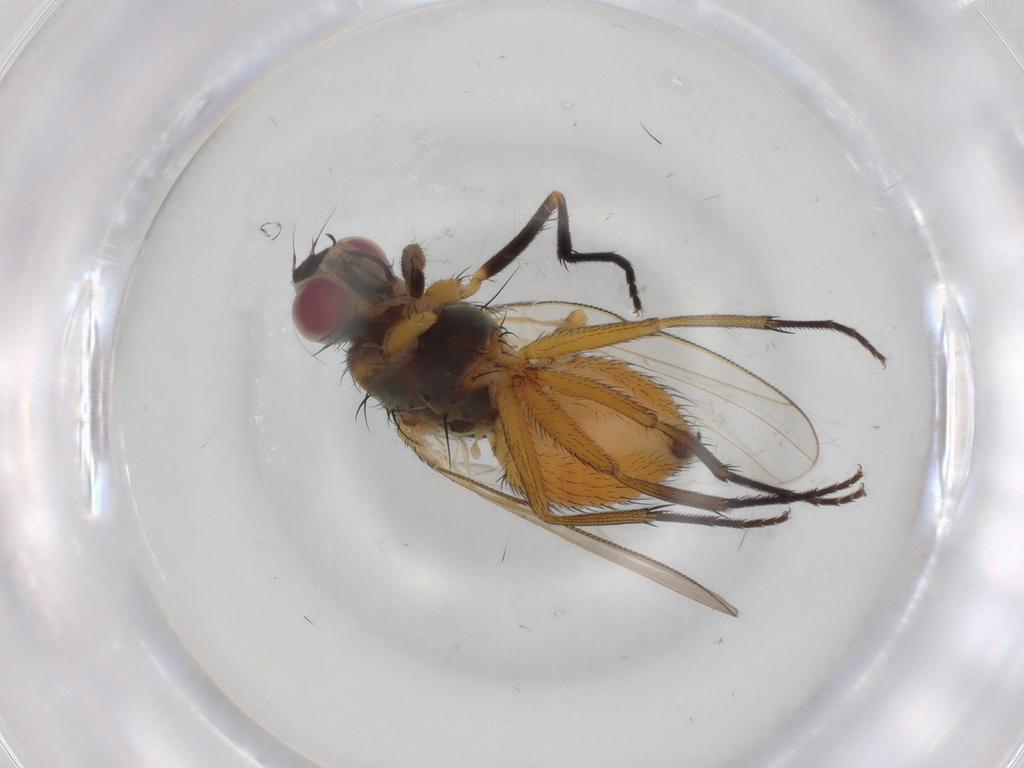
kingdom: Animalia
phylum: Arthropoda
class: Insecta
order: Diptera
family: Muscidae
